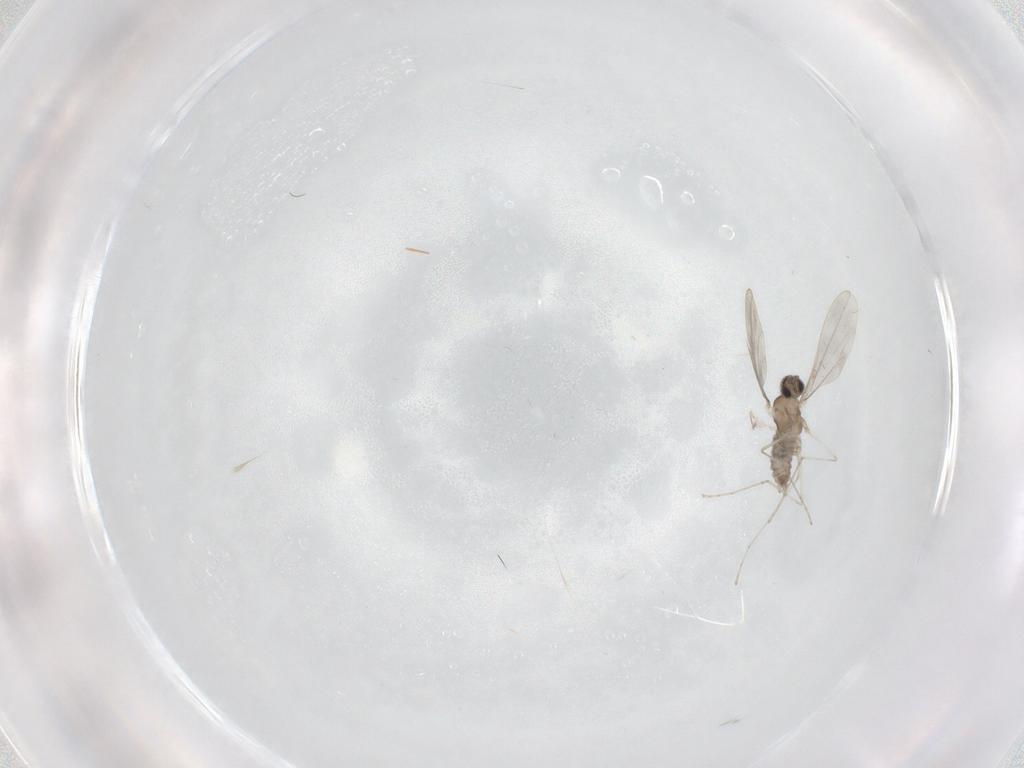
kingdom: Animalia
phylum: Arthropoda
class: Insecta
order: Diptera
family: Cecidomyiidae
